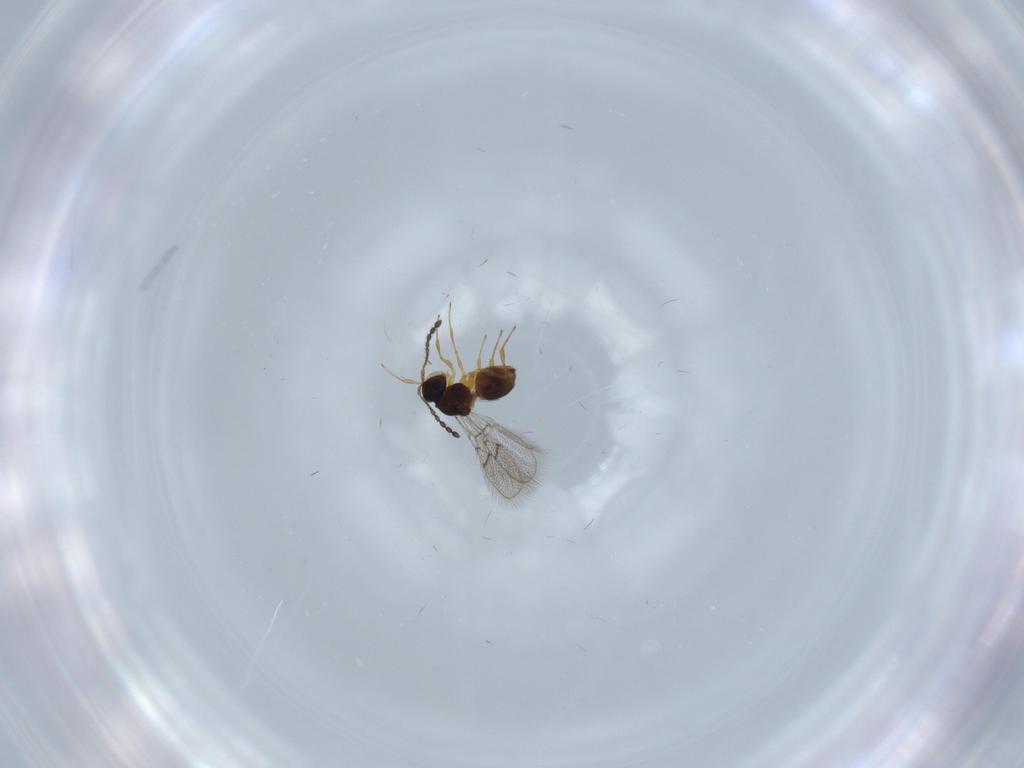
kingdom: Animalia
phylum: Arthropoda
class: Insecta
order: Hymenoptera
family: Figitidae
